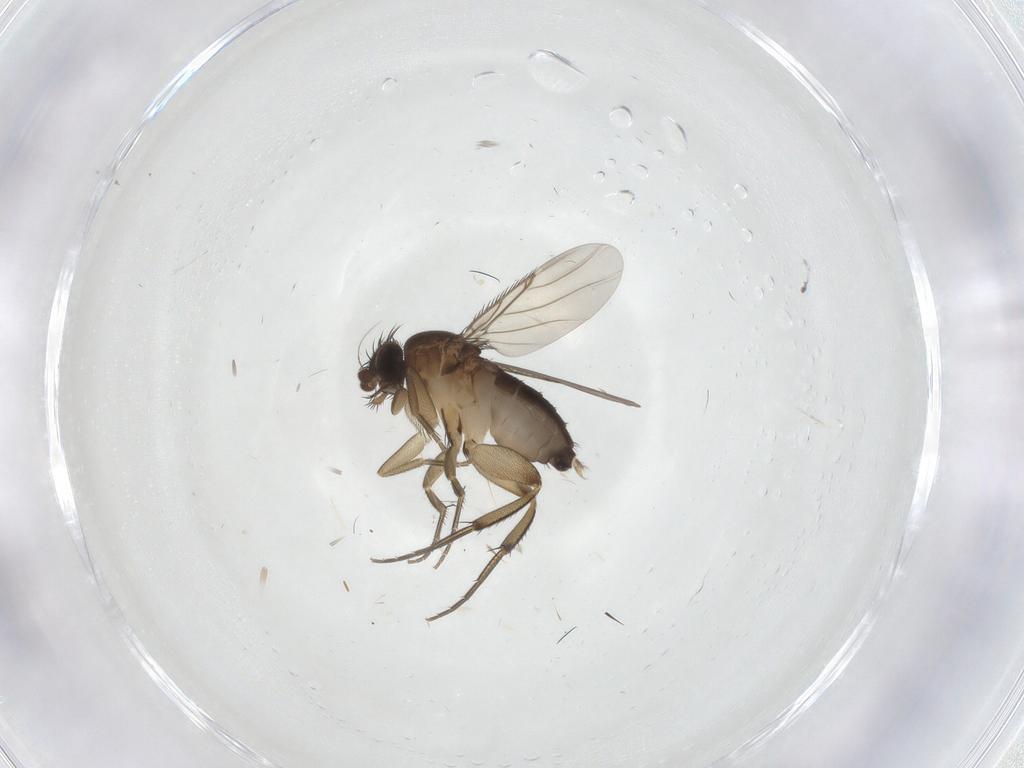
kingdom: Animalia
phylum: Arthropoda
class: Insecta
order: Diptera
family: Phoridae
